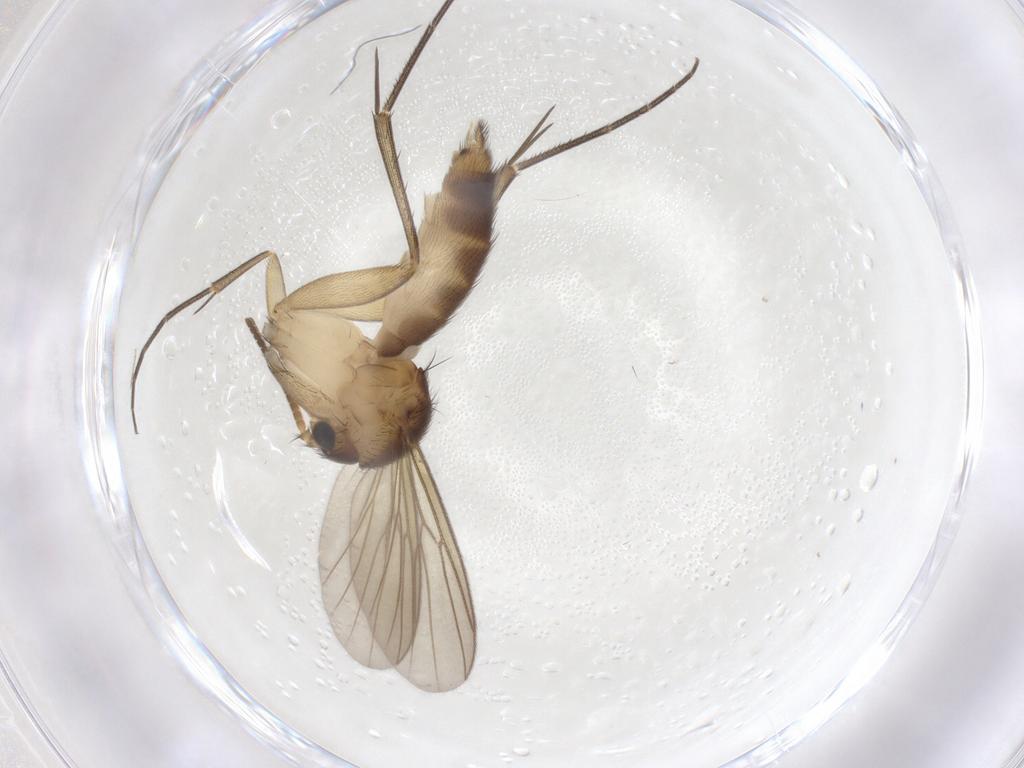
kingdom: Animalia
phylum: Arthropoda
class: Insecta
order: Diptera
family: Mycetophilidae
